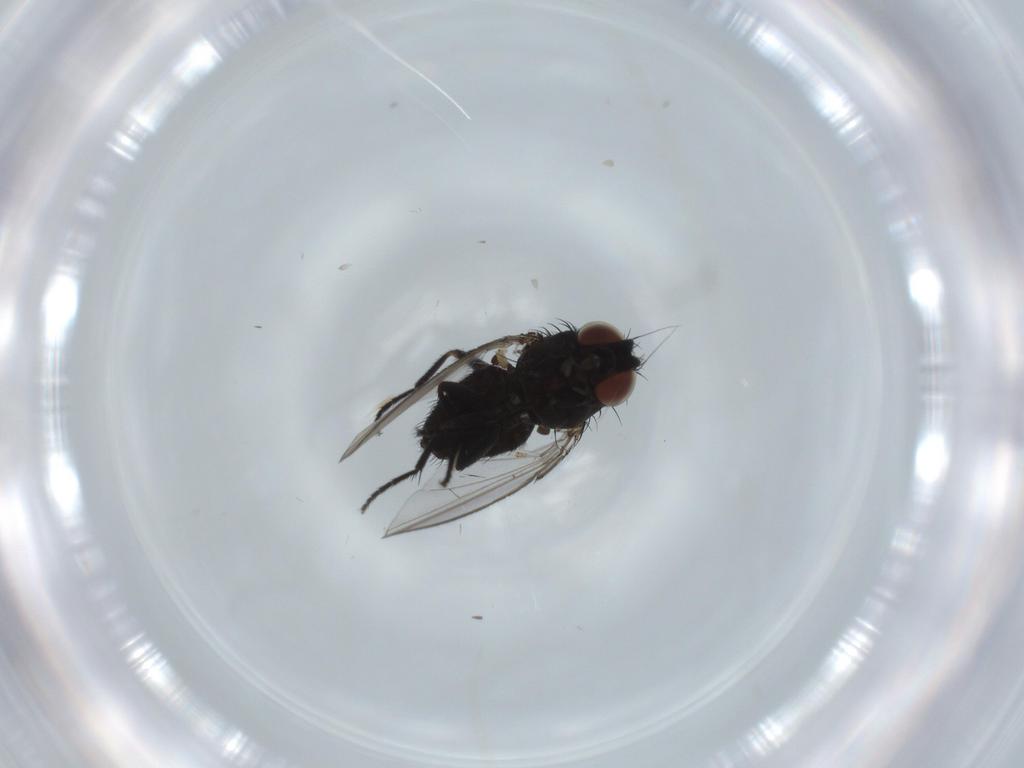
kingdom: Animalia
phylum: Arthropoda
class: Insecta
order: Diptera
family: Milichiidae
